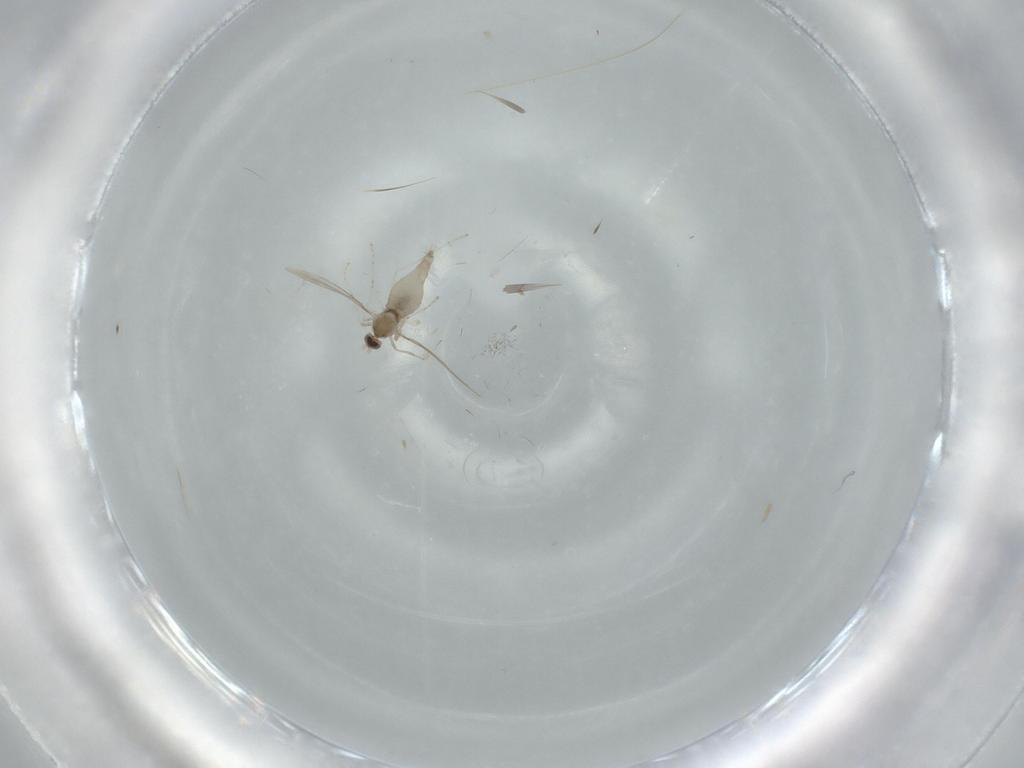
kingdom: Animalia
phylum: Arthropoda
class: Insecta
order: Diptera
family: Cecidomyiidae
